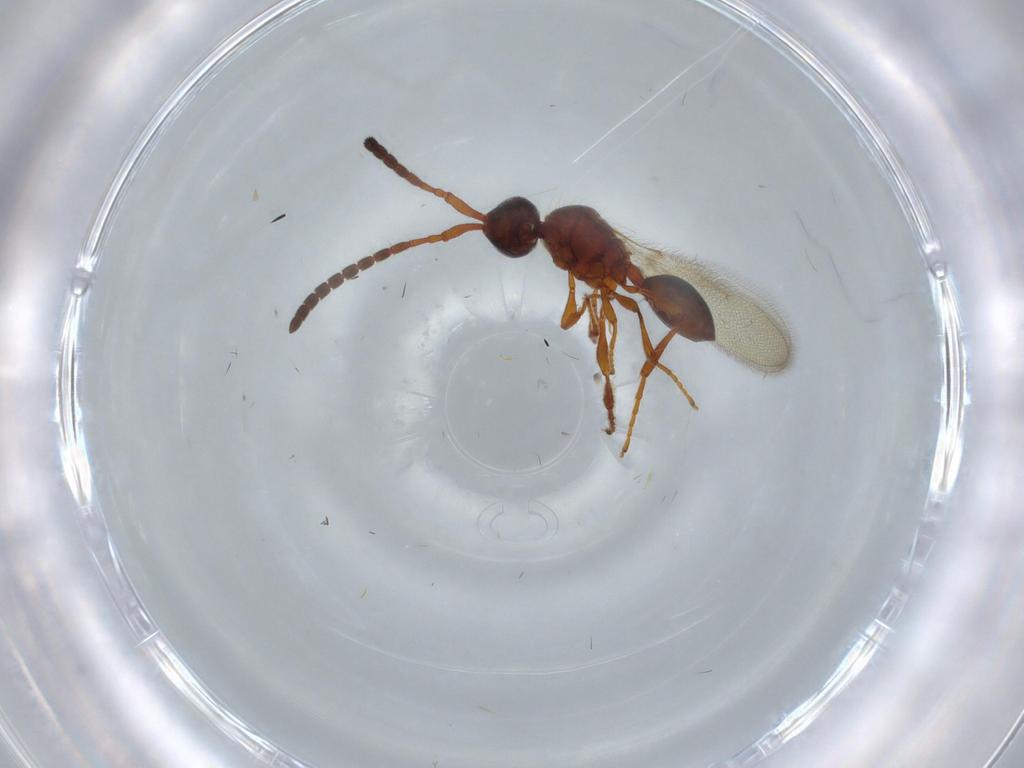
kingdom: Animalia
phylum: Arthropoda
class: Insecta
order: Hymenoptera
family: Diapriidae
